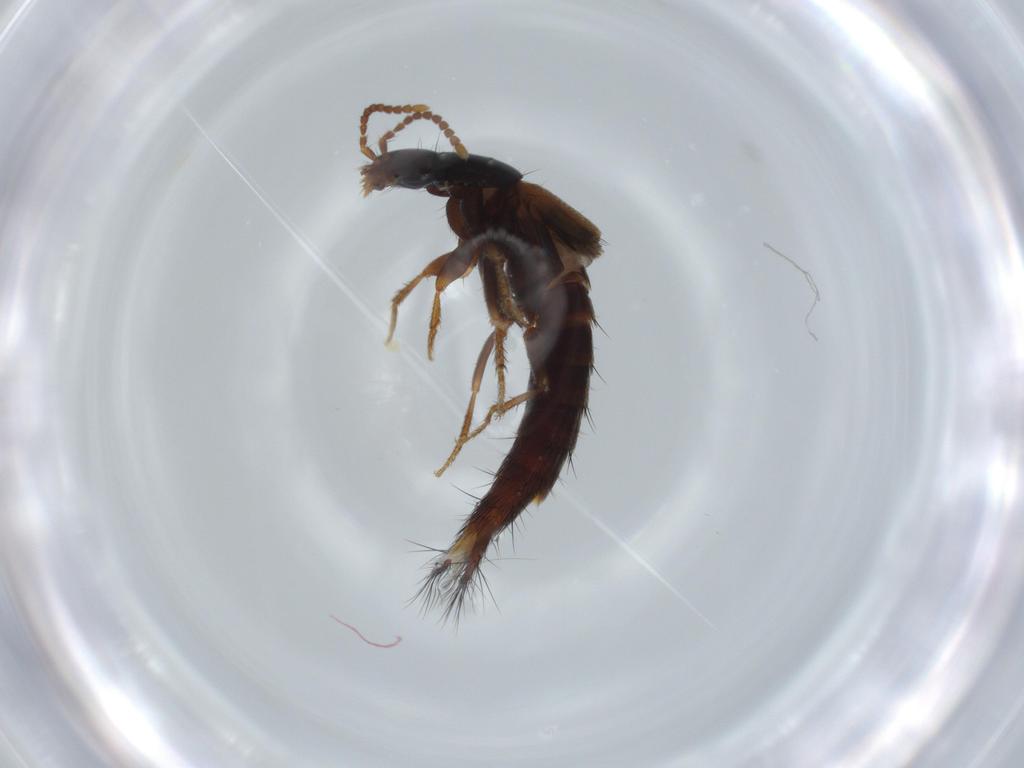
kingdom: Animalia
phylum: Arthropoda
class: Insecta
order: Coleoptera
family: Staphylinidae
